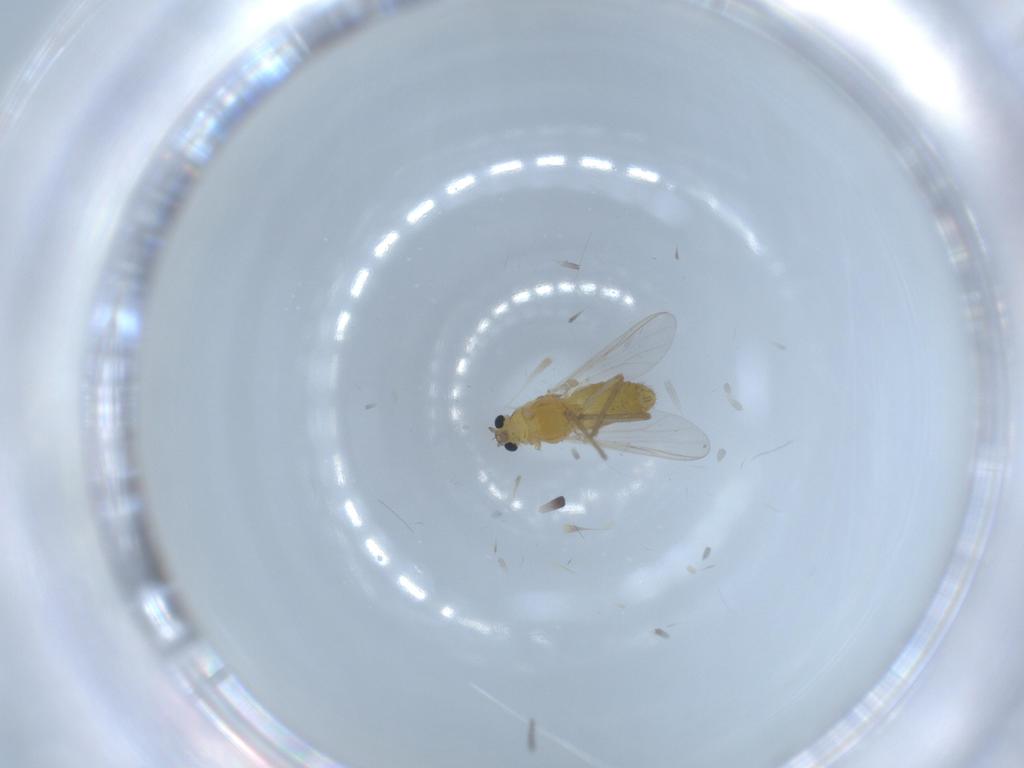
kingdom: Animalia
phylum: Arthropoda
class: Insecta
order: Diptera
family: Chironomidae
